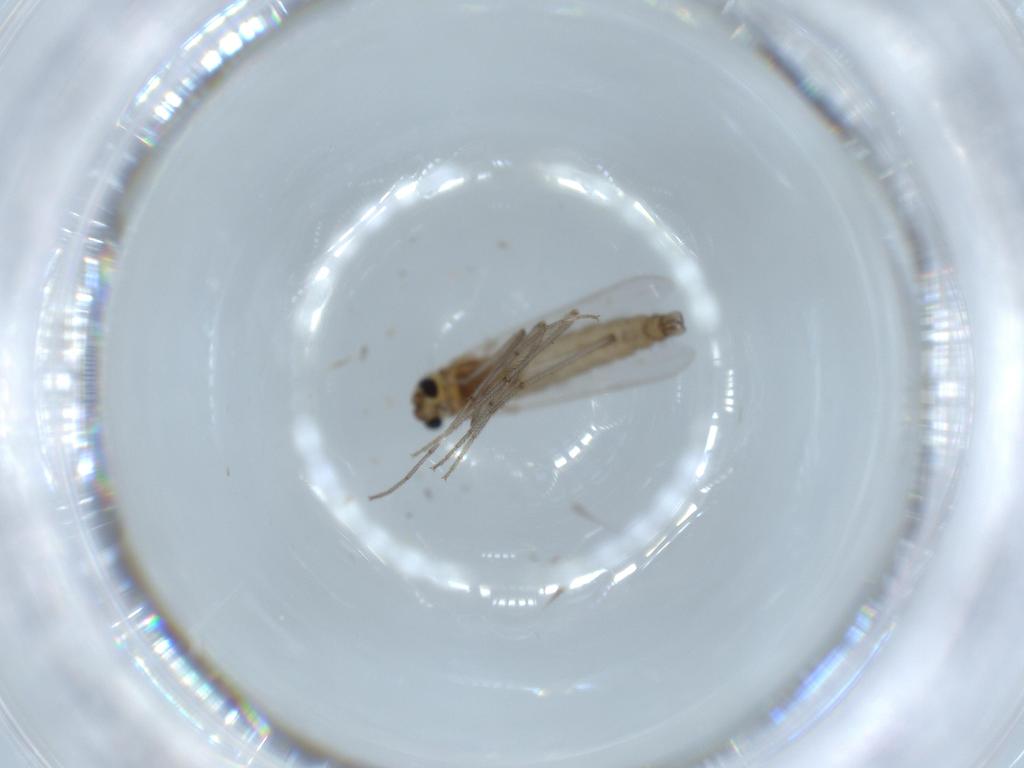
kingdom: Animalia
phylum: Arthropoda
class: Insecta
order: Diptera
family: Chironomidae
